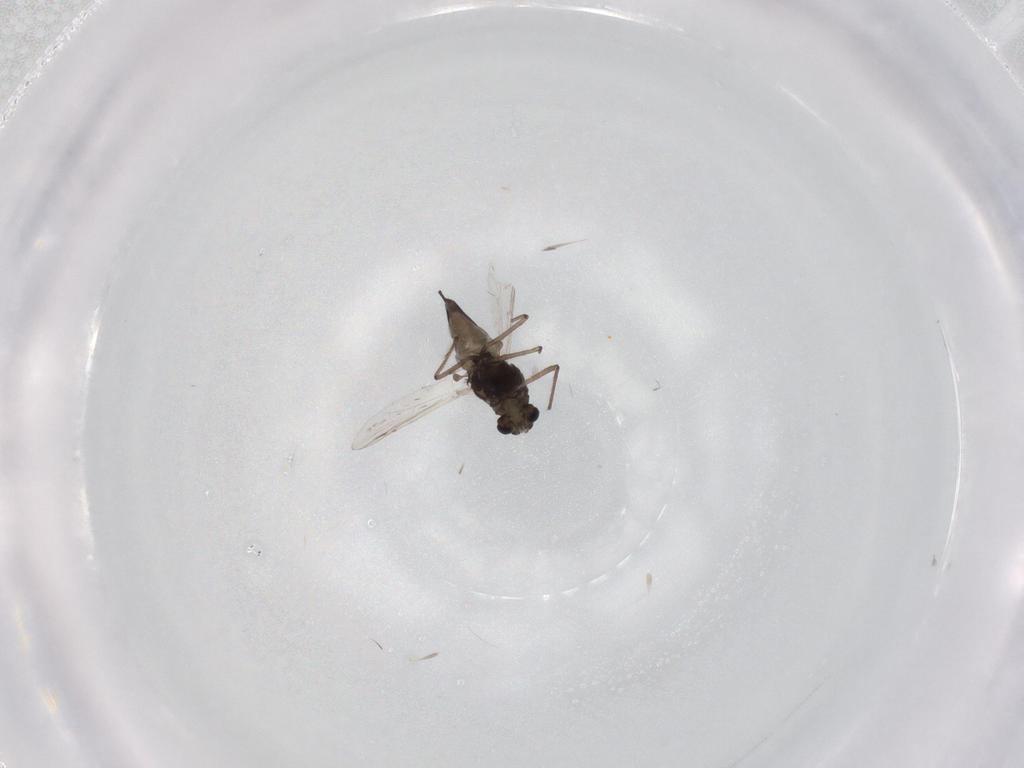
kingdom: Animalia
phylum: Arthropoda
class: Insecta
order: Diptera
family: Chironomidae
